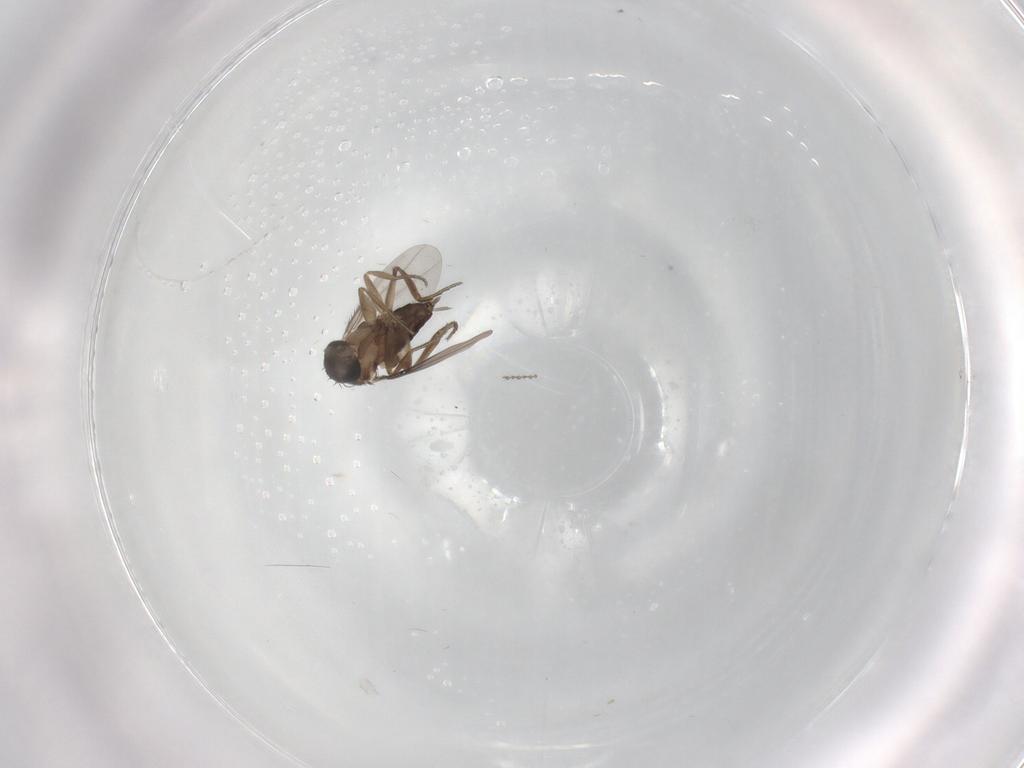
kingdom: Animalia
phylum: Arthropoda
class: Insecta
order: Diptera
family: Phoridae
